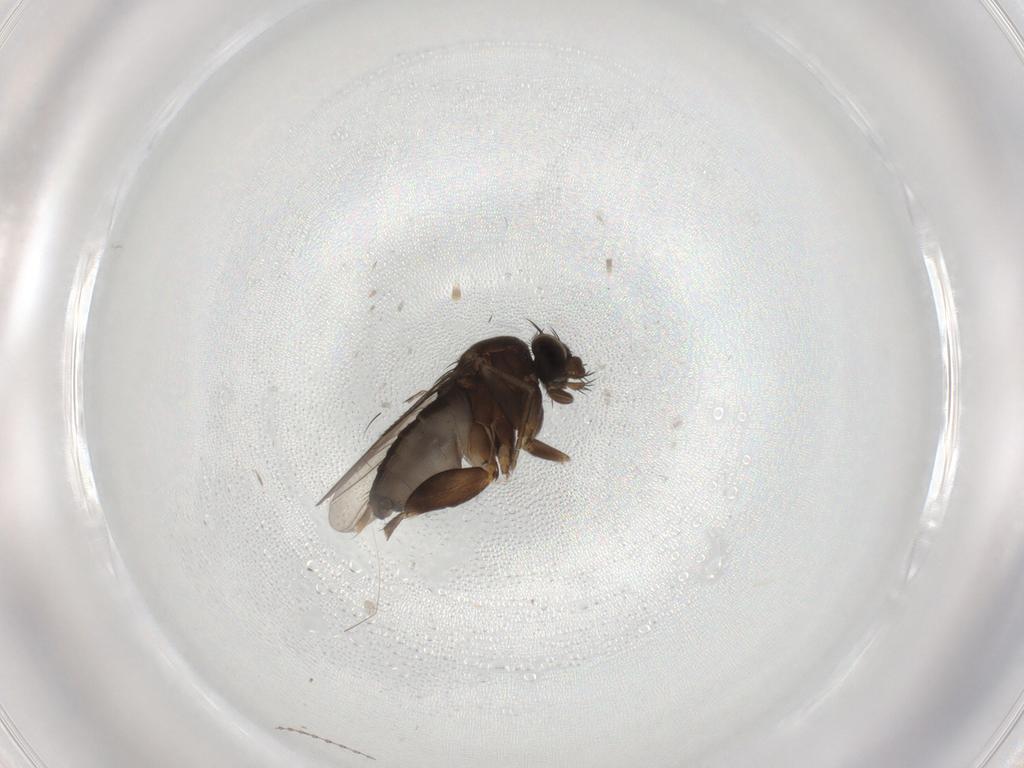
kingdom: Animalia
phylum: Arthropoda
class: Insecta
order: Diptera
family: Phoridae
